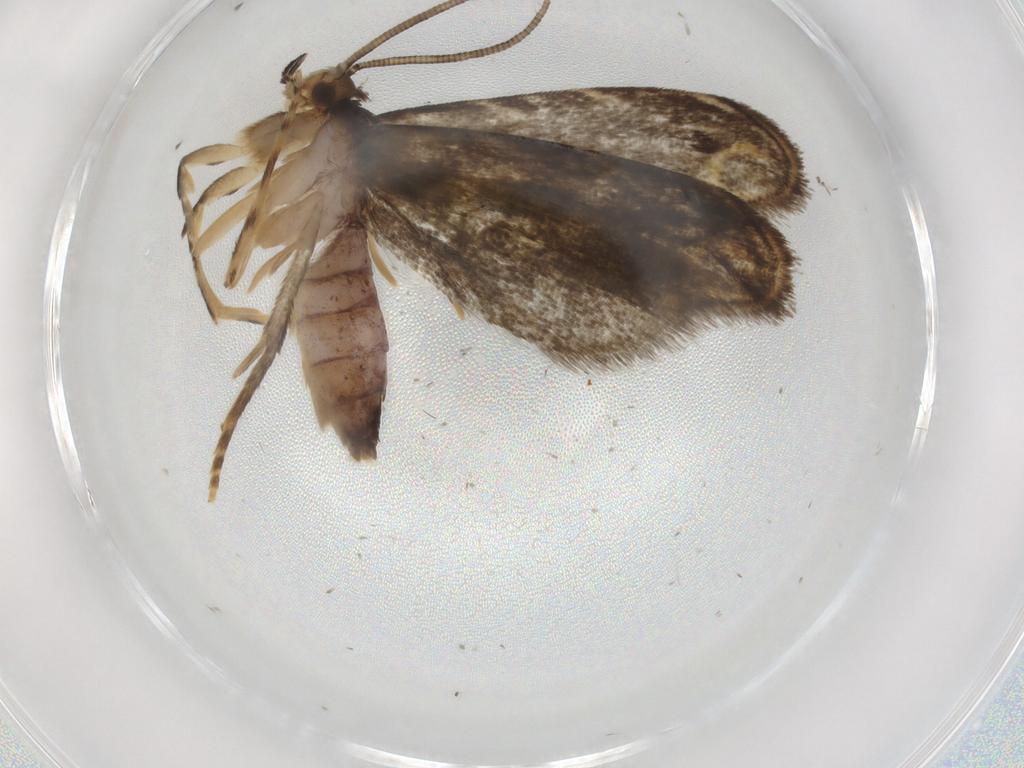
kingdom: Animalia
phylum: Arthropoda
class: Insecta
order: Lepidoptera
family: Dryadaulidae
